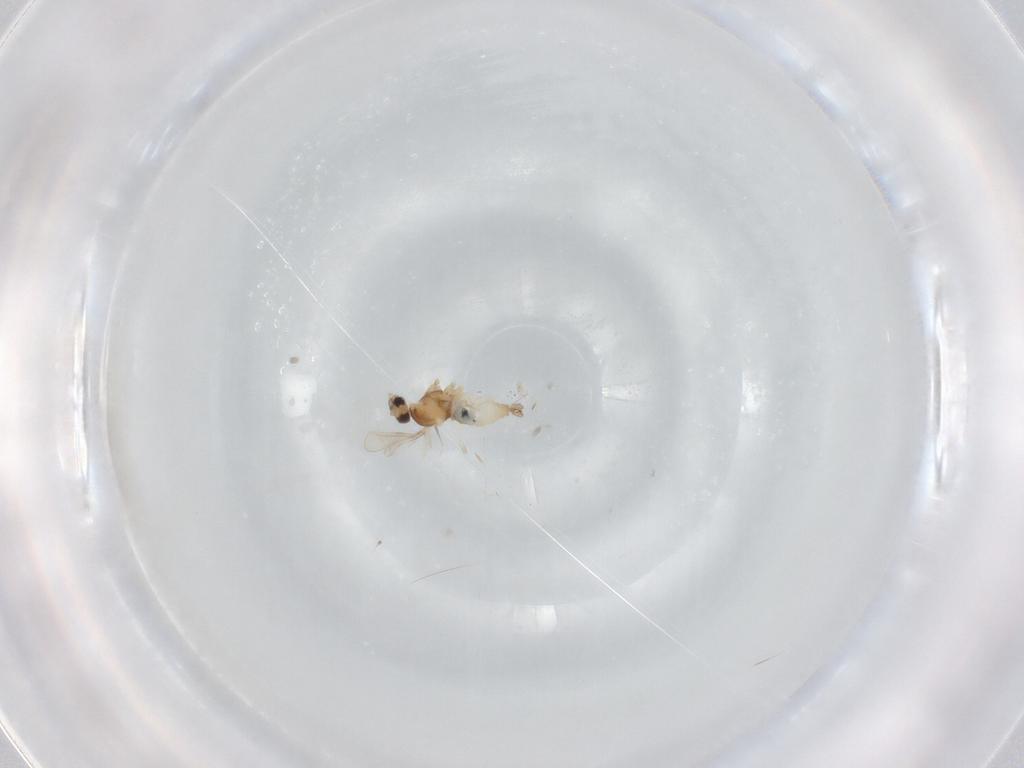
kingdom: Animalia
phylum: Arthropoda
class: Insecta
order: Diptera
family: Cecidomyiidae
